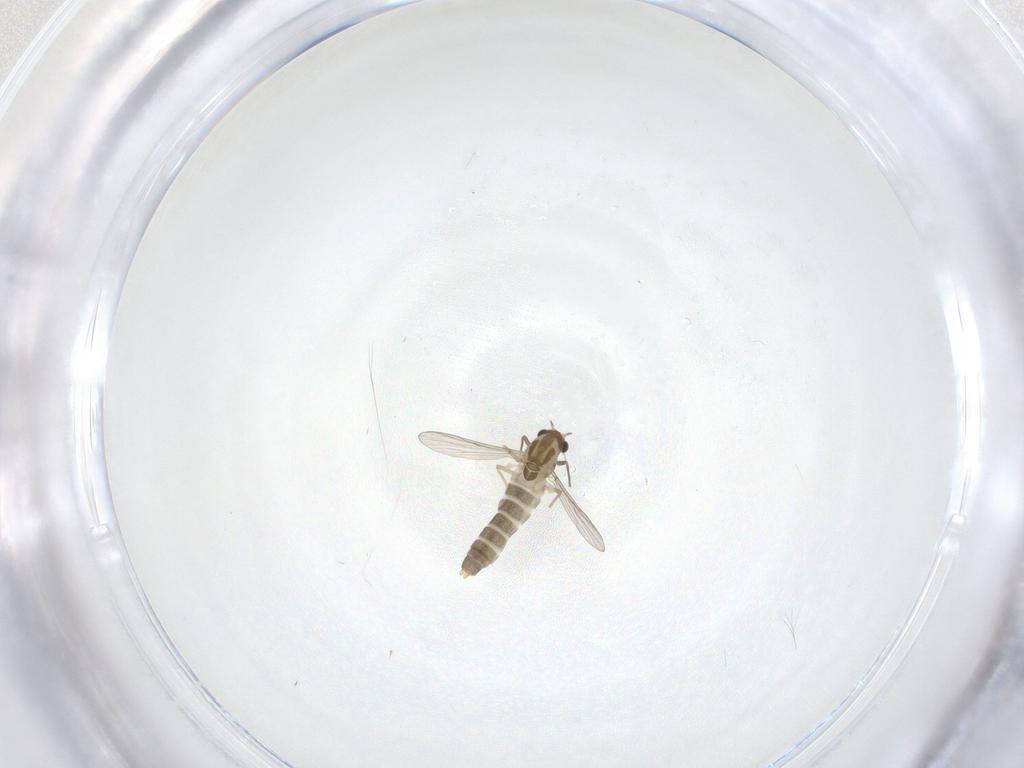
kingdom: Animalia
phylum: Arthropoda
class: Insecta
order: Diptera
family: Chironomidae
